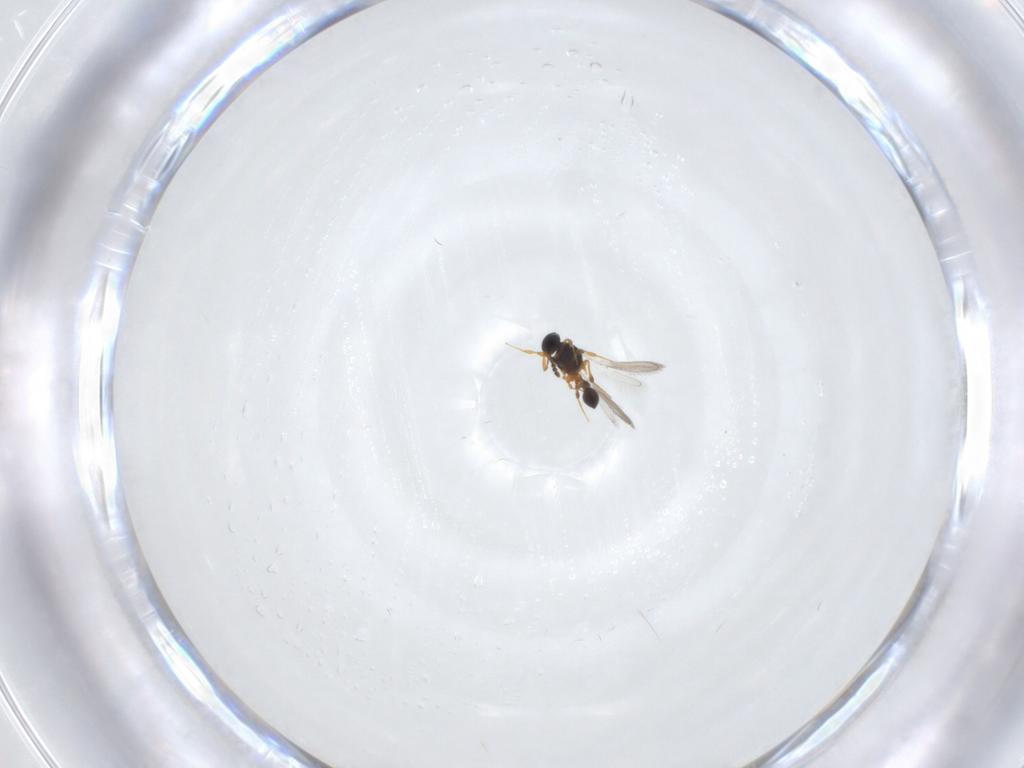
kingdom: Animalia
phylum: Arthropoda
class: Insecta
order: Hymenoptera
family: Platygastridae
